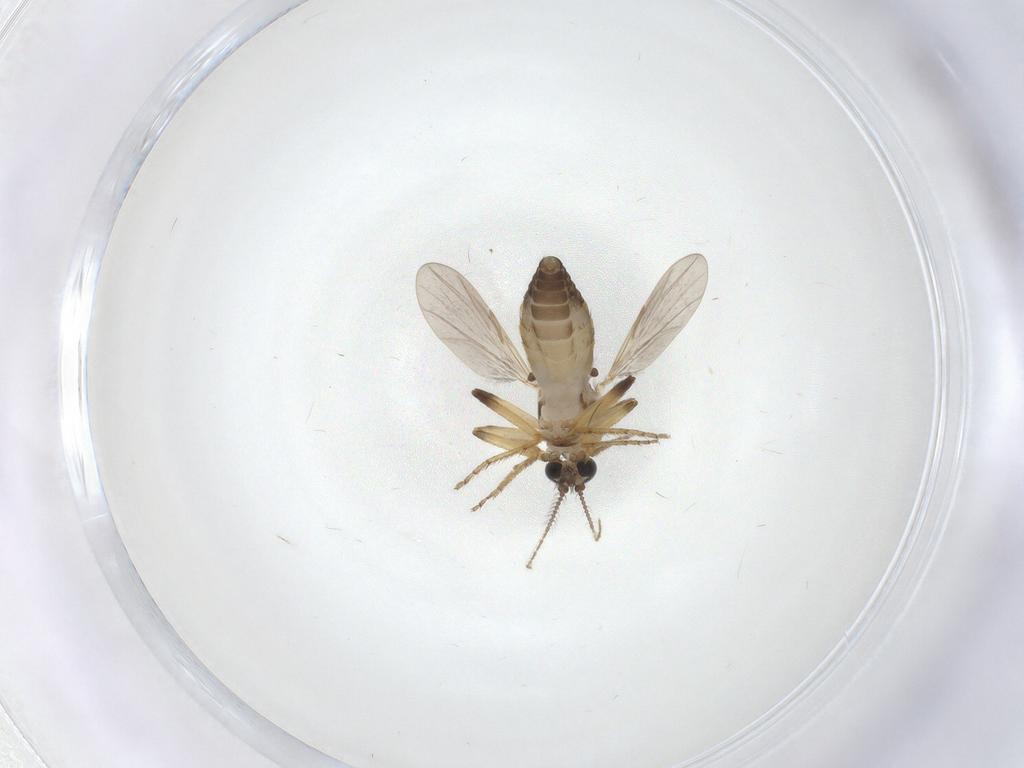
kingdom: Animalia
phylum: Arthropoda
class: Insecta
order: Diptera
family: Ceratopogonidae
